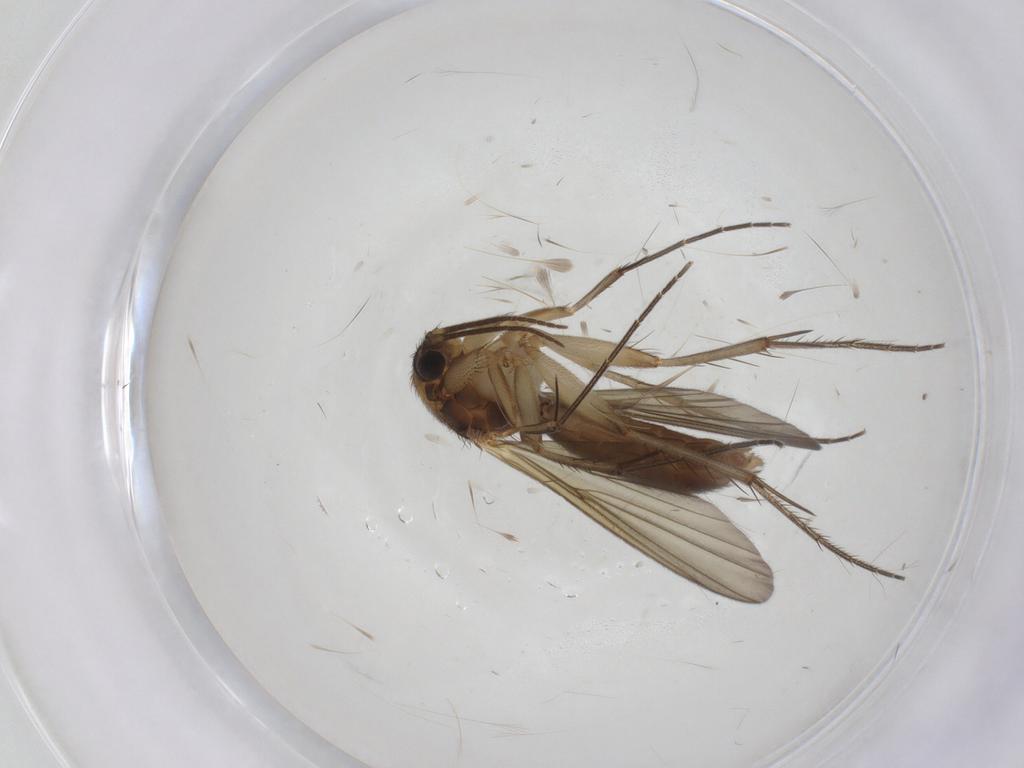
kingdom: Animalia
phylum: Arthropoda
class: Insecta
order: Diptera
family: Mycetophilidae
